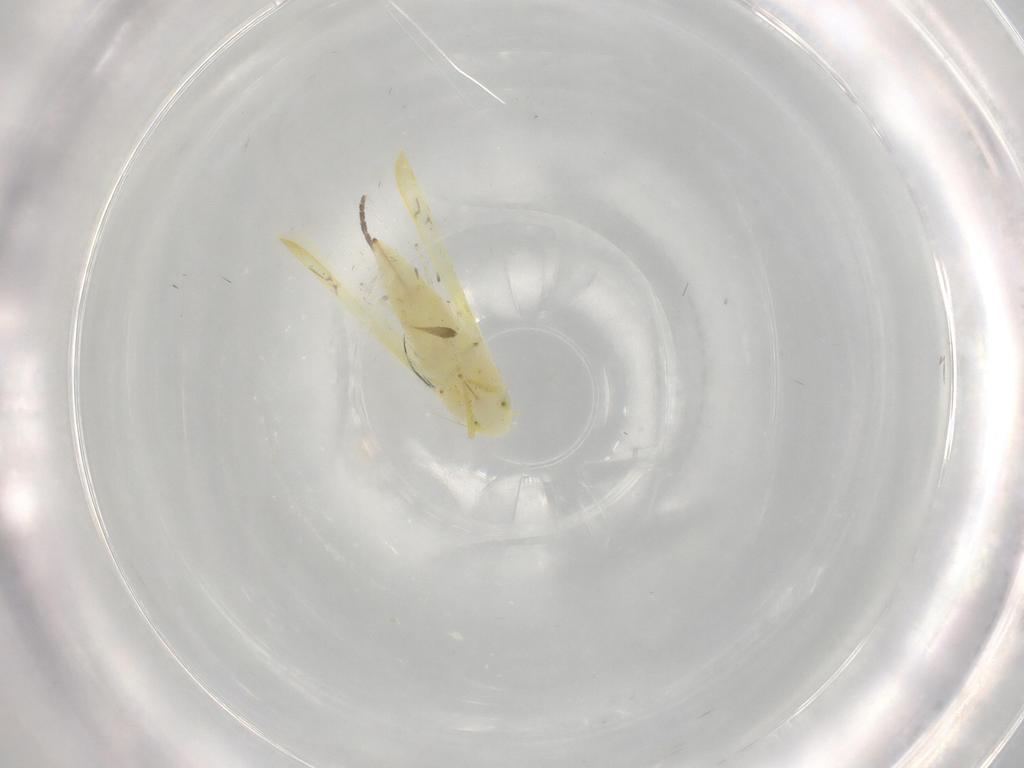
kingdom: Animalia
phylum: Arthropoda
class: Insecta
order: Hemiptera
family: Cicadellidae
